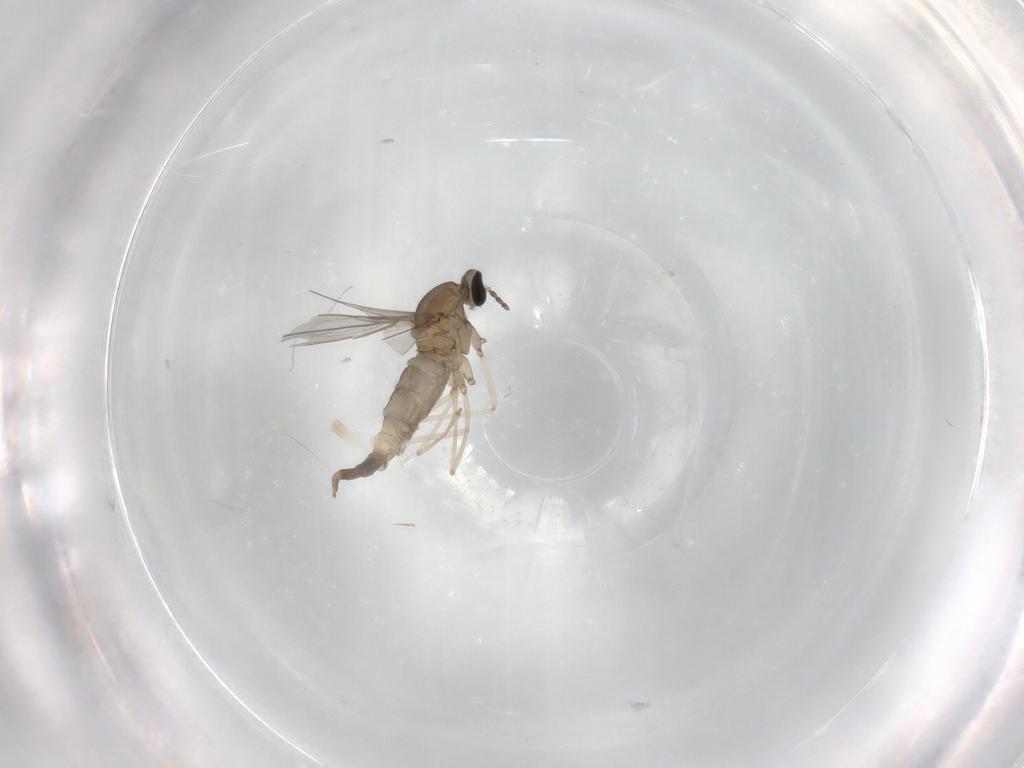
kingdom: Animalia
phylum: Arthropoda
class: Insecta
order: Diptera
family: Cecidomyiidae
